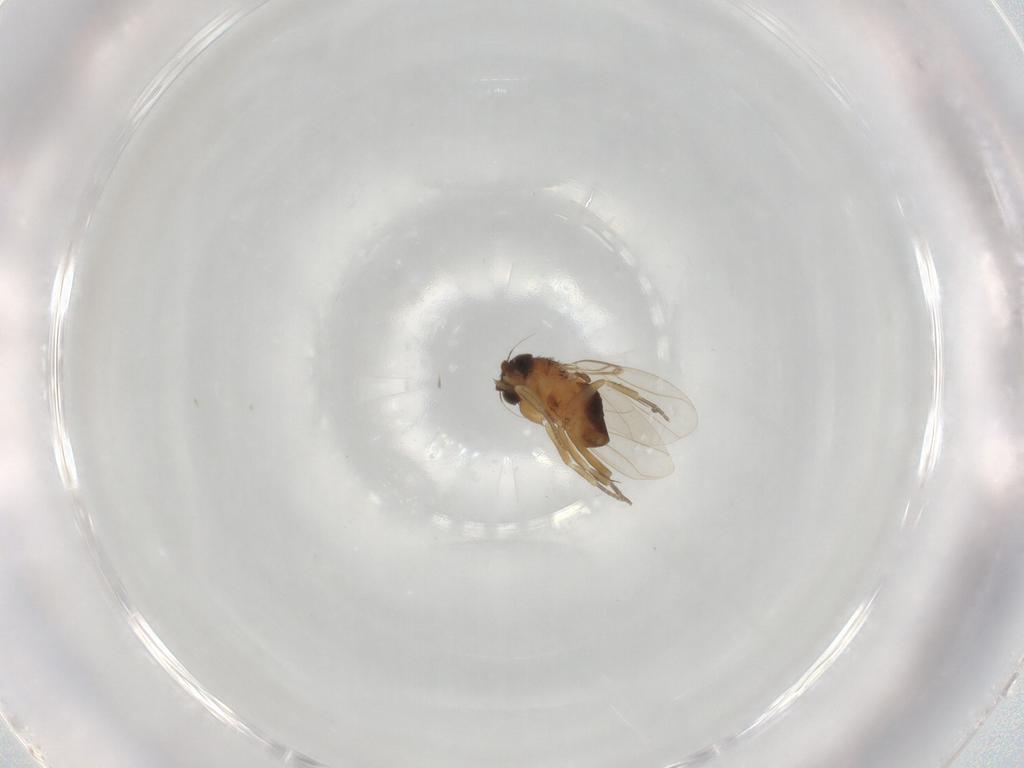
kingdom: Animalia
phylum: Arthropoda
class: Insecta
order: Diptera
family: Phoridae
